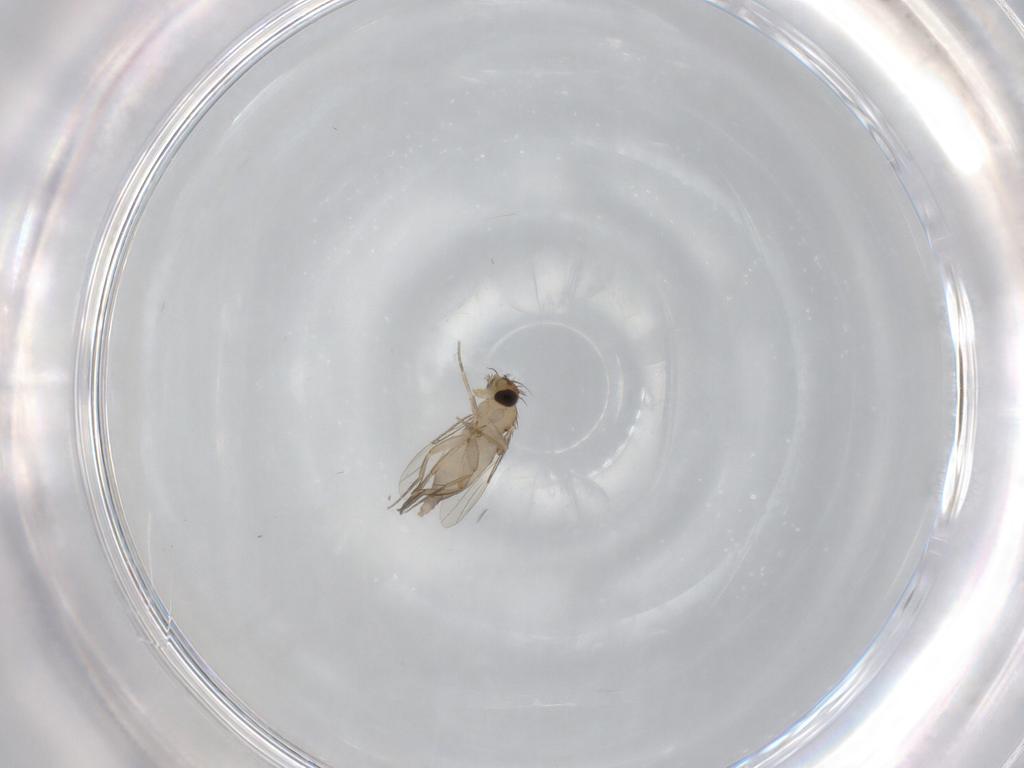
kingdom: Animalia
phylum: Arthropoda
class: Insecta
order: Diptera
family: Phoridae
